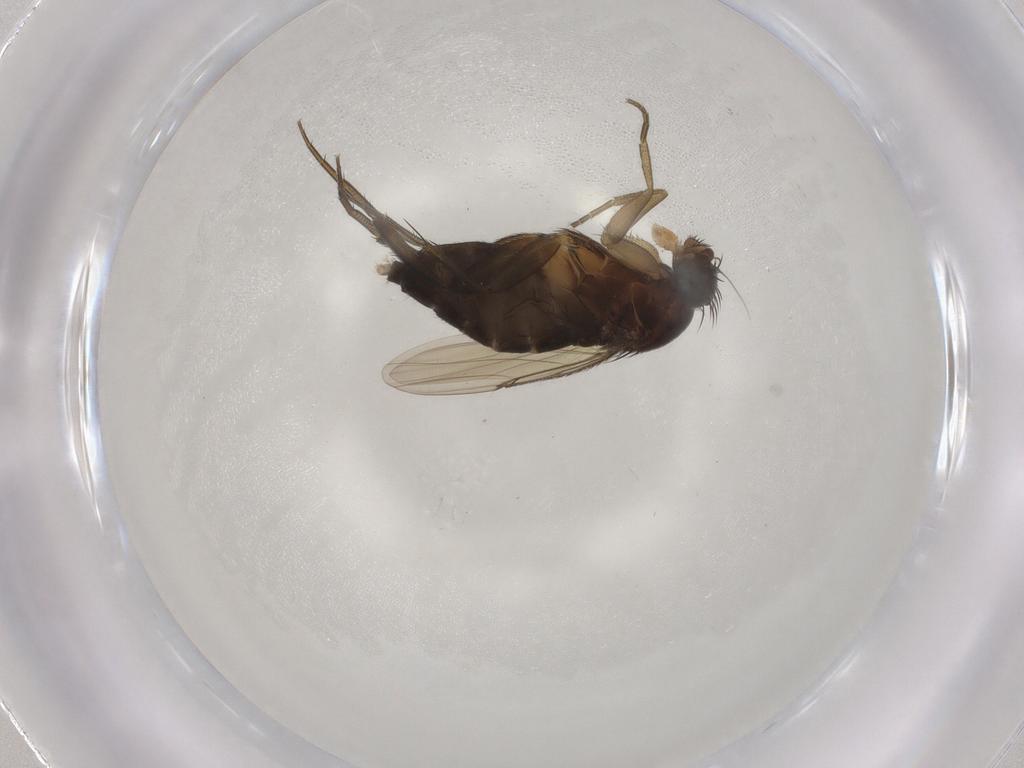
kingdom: Animalia
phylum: Arthropoda
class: Insecta
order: Diptera
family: Phoridae
